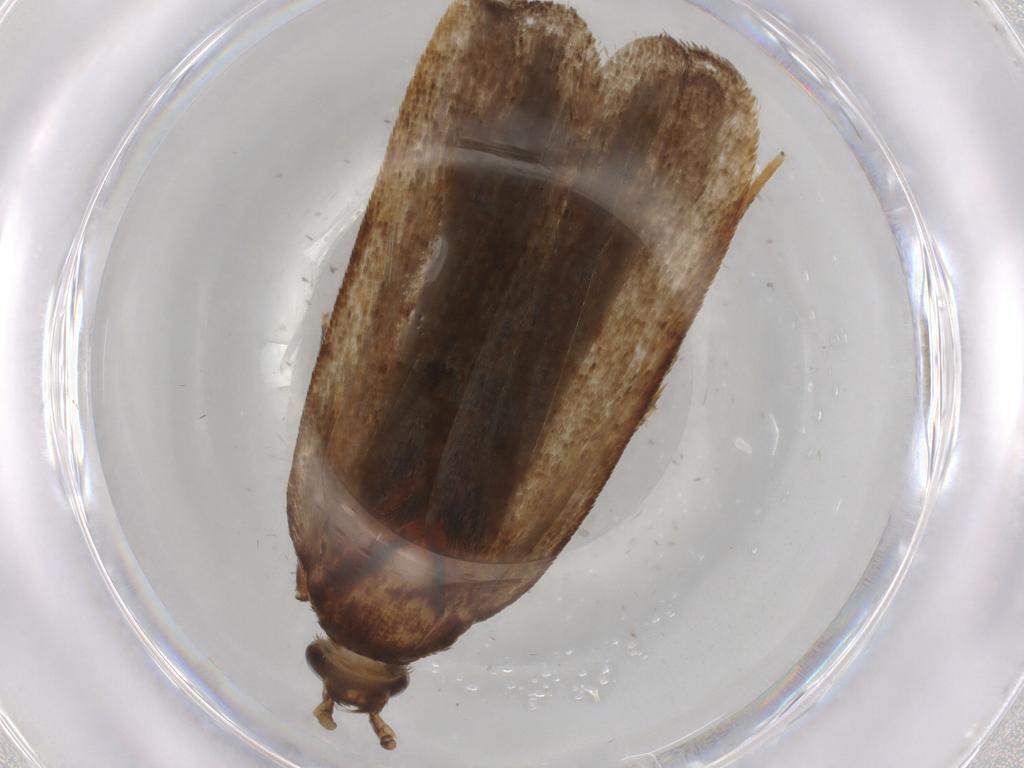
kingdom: Animalia
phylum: Arthropoda
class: Insecta
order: Lepidoptera
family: Autostichidae
